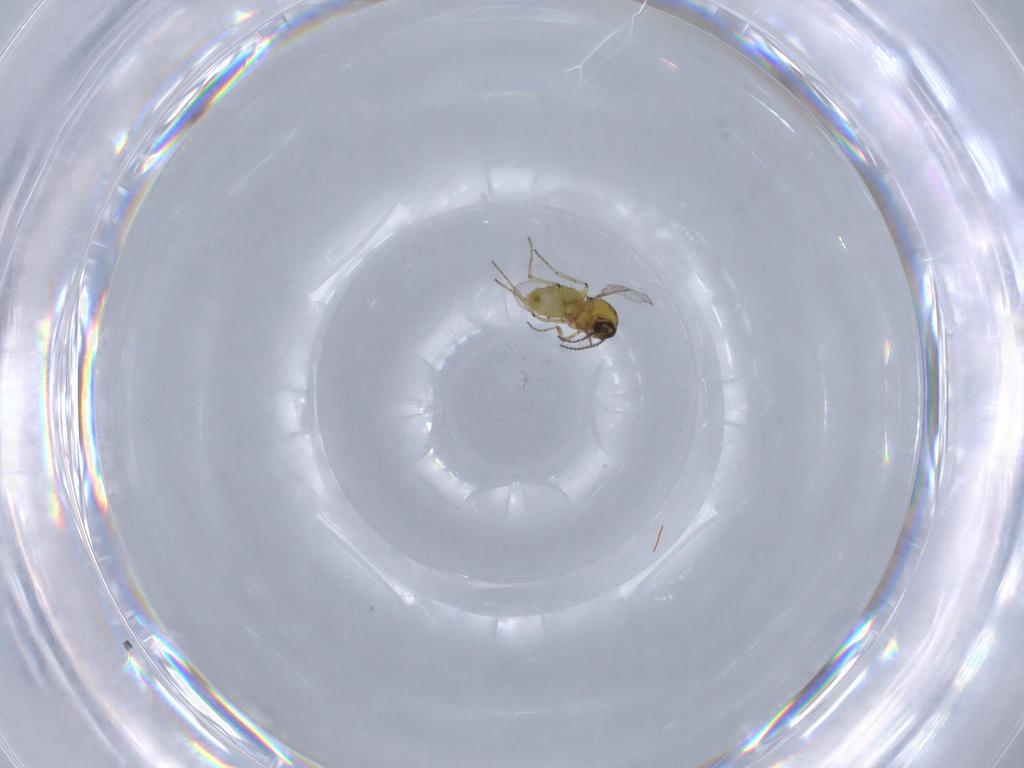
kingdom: Animalia
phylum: Arthropoda
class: Insecta
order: Diptera
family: Ceratopogonidae
